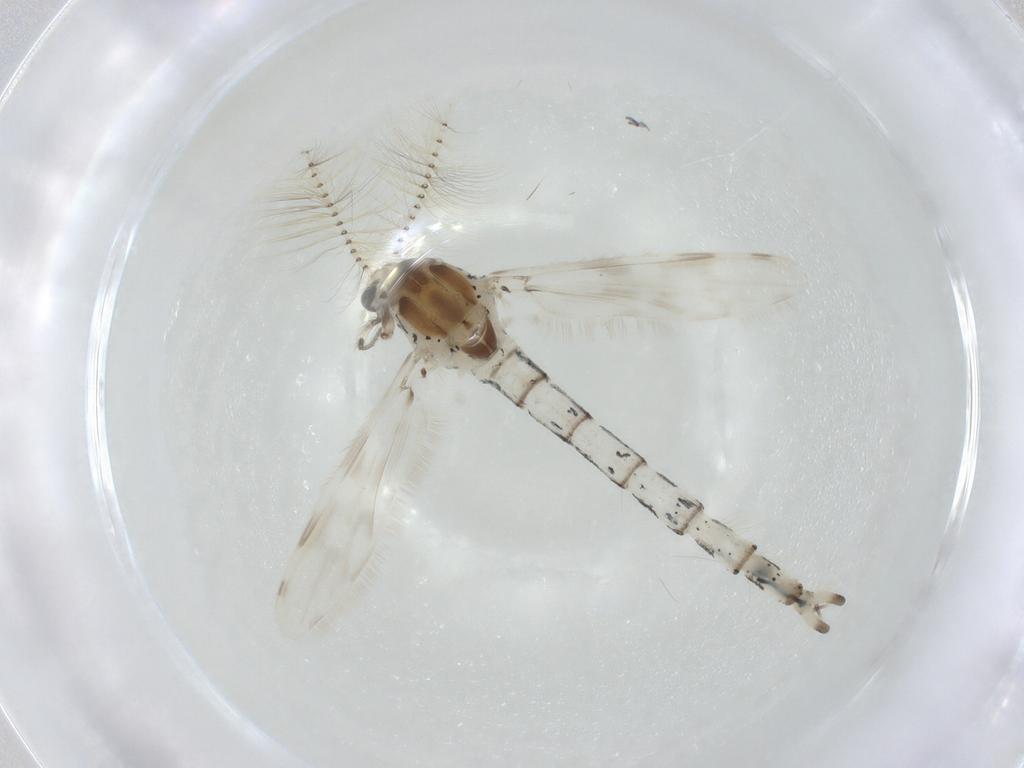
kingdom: Animalia
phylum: Arthropoda
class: Insecta
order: Diptera
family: Chaoboridae
